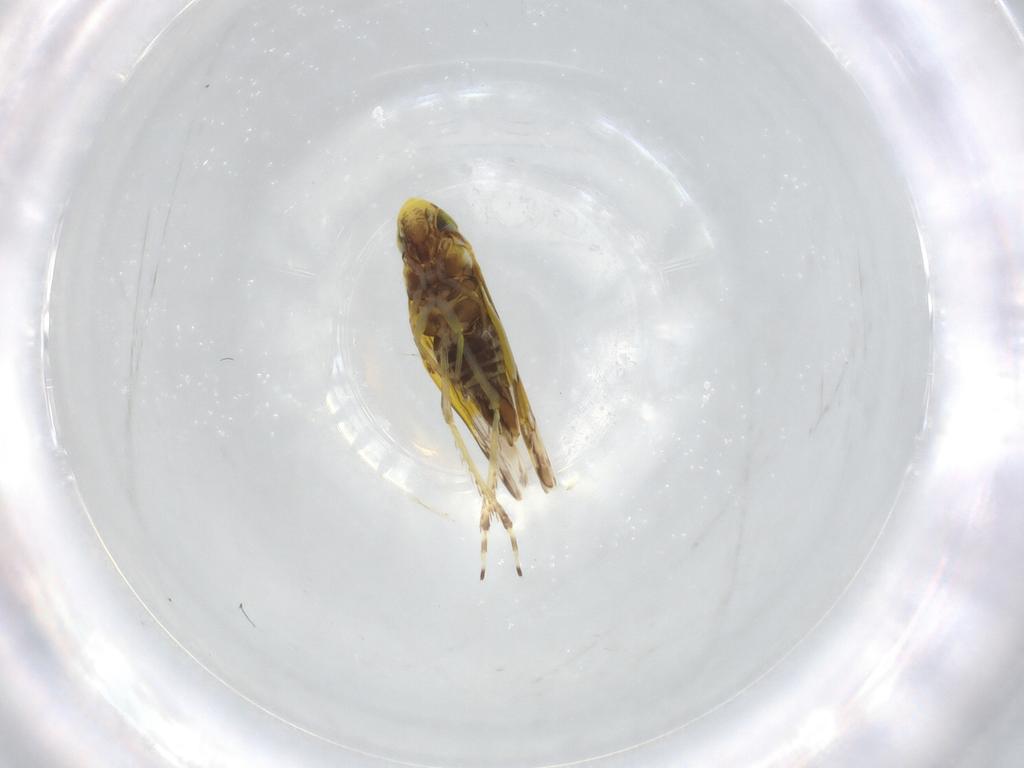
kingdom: Animalia
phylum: Arthropoda
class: Insecta
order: Hemiptera
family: Cicadellidae
